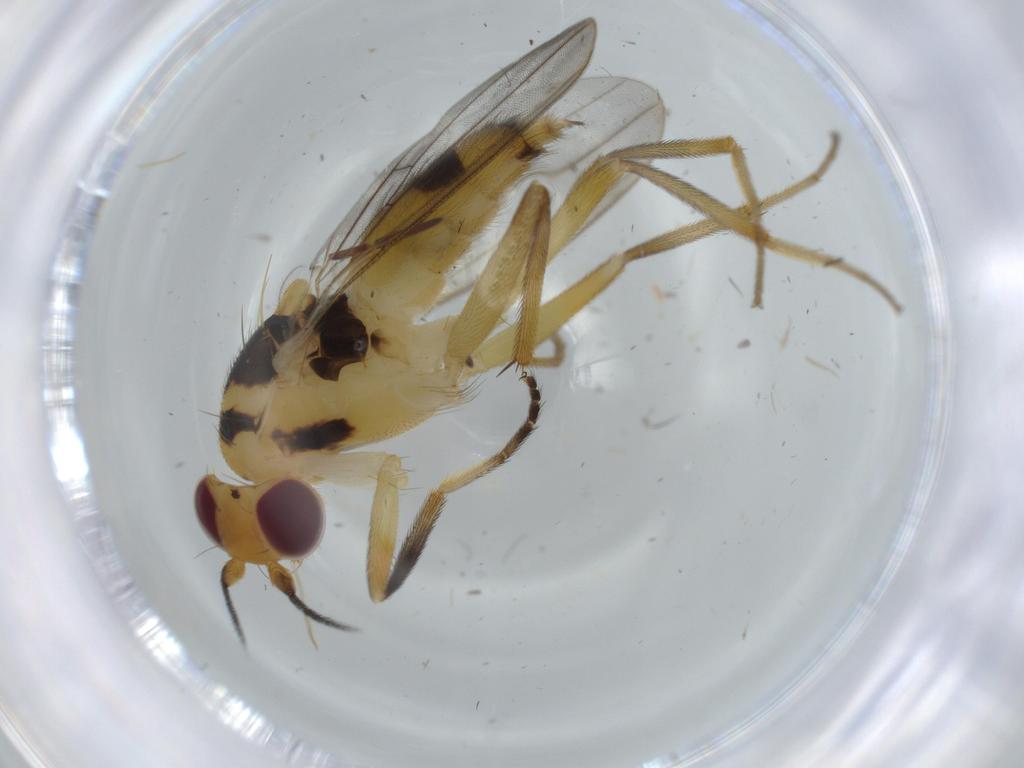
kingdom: Animalia
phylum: Arthropoda
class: Insecta
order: Diptera
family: Clusiidae
